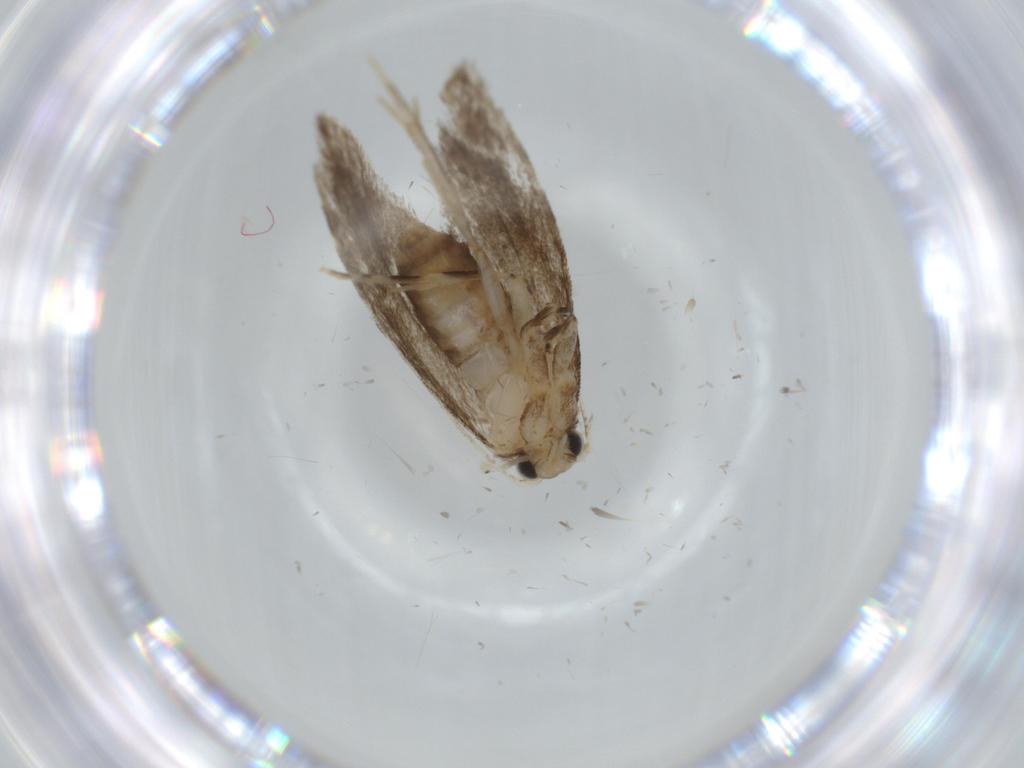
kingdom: Animalia
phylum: Arthropoda
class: Insecta
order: Lepidoptera
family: Tineidae
